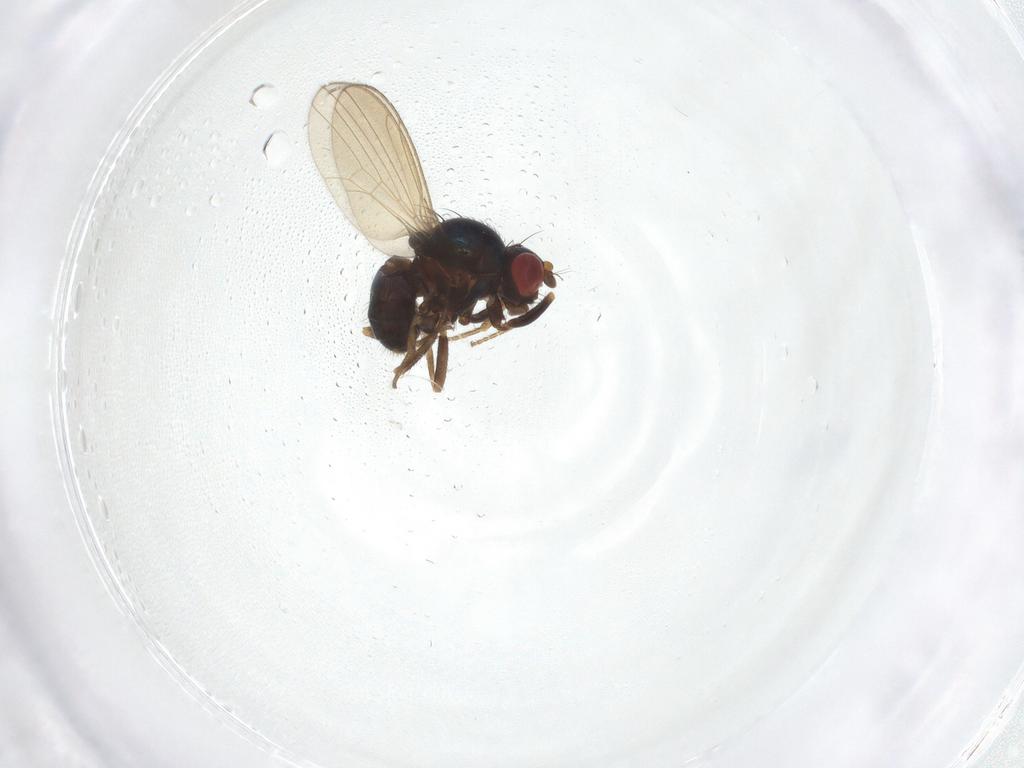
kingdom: Animalia
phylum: Arthropoda
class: Insecta
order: Diptera
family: Drosophilidae
